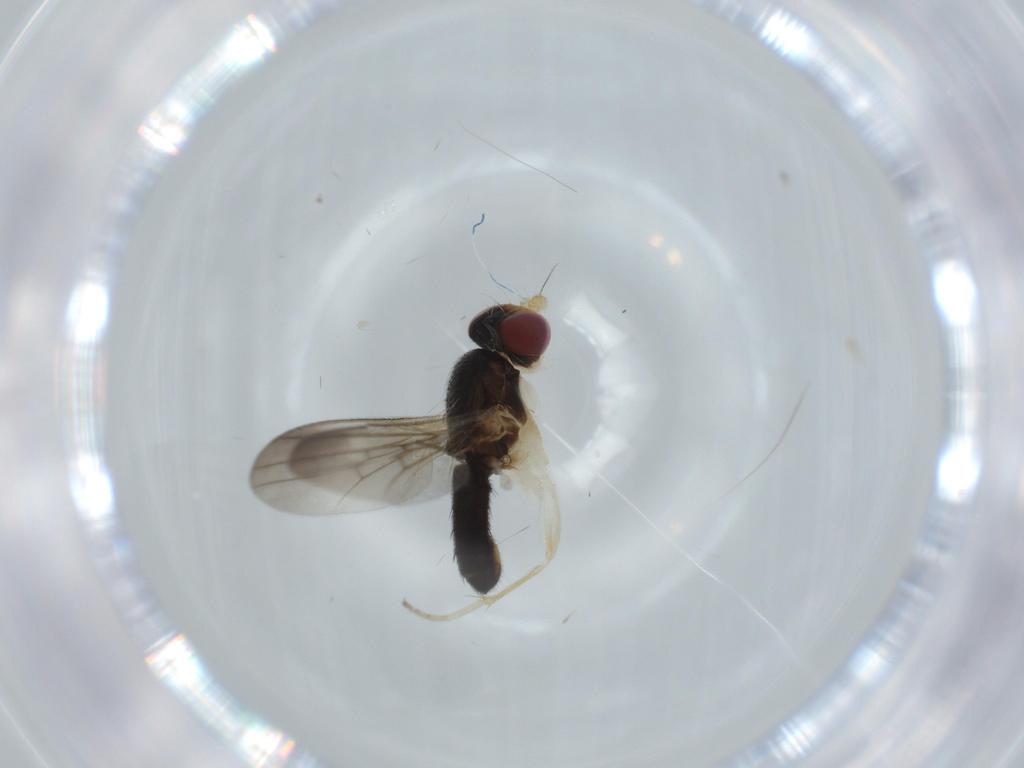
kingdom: Animalia
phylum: Arthropoda
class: Insecta
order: Diptera
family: Clusiidae
